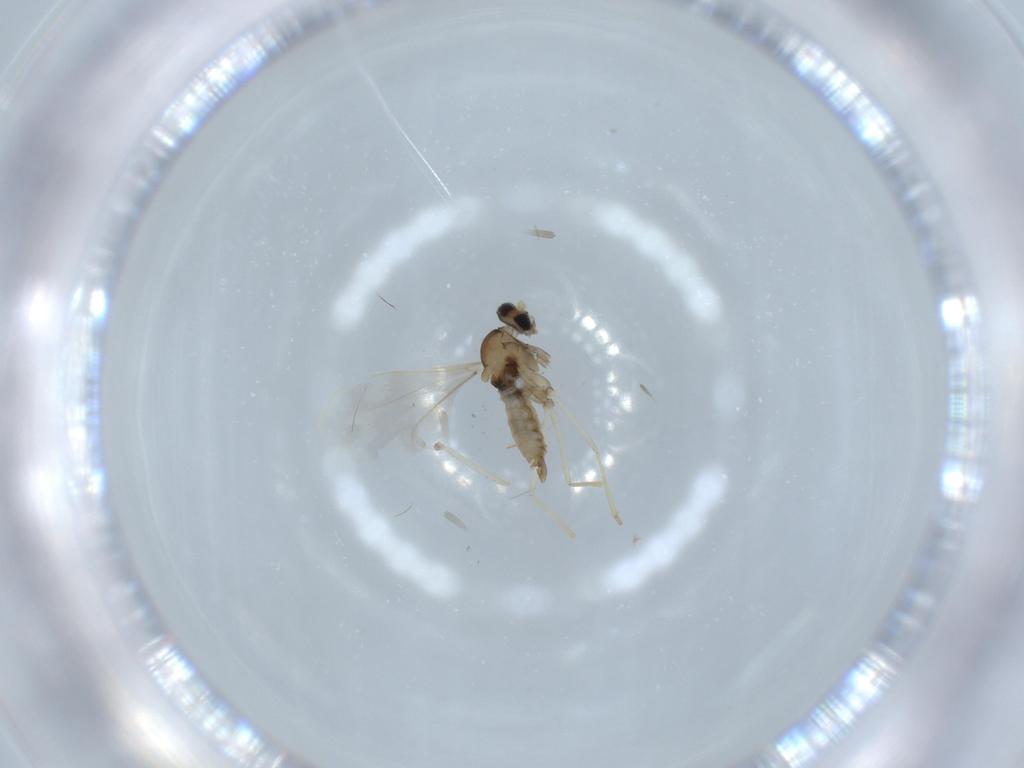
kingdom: Animalia
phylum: Arthropoda
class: Insecta
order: Diptera
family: Cecidomyiidae
